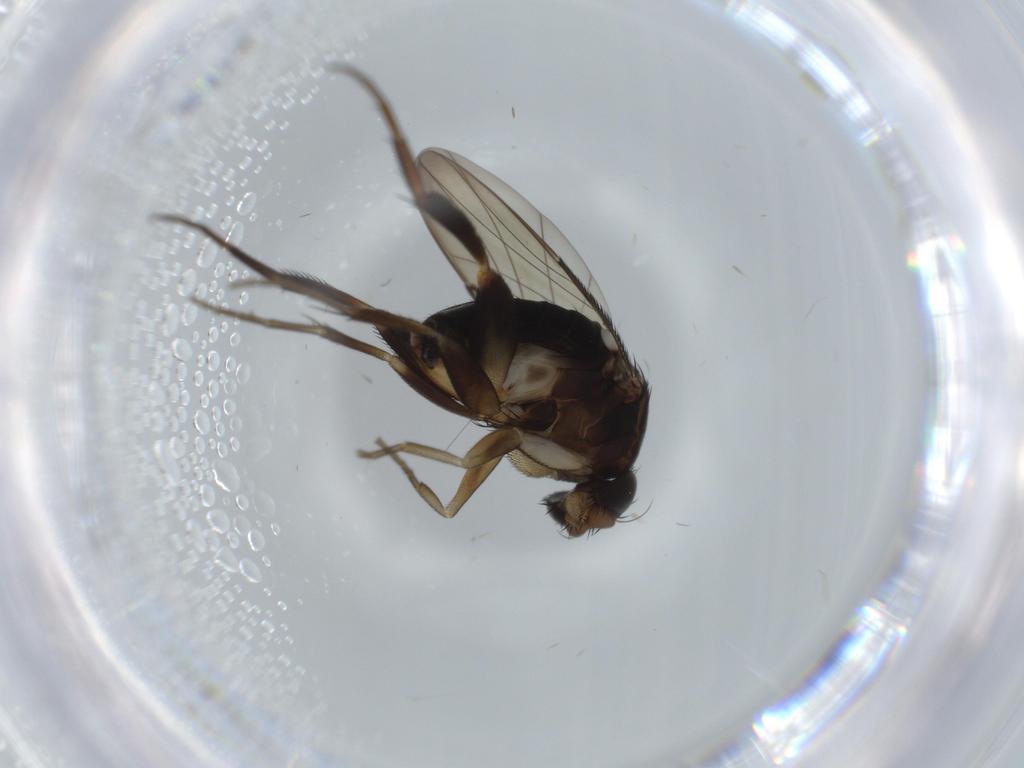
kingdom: Animalia
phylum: Arthropoda
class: Insecta
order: Diptera
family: Phoridae
